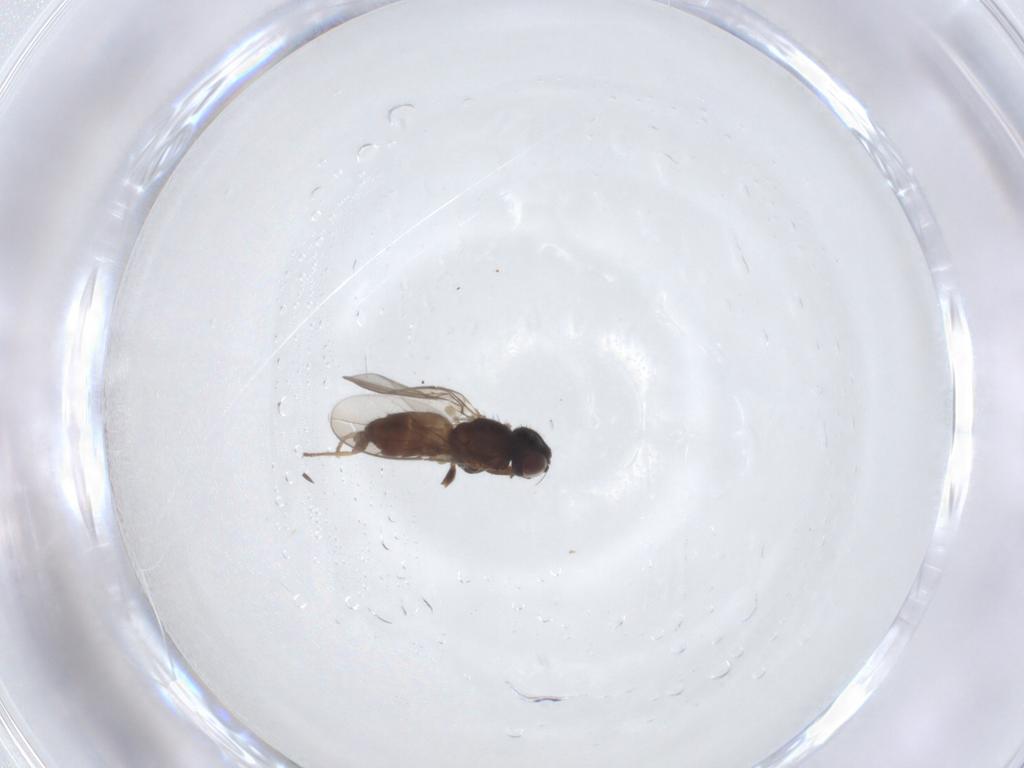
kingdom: Animalia
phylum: Arthropoda
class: Insecta
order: Diptera
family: Chloropidae
